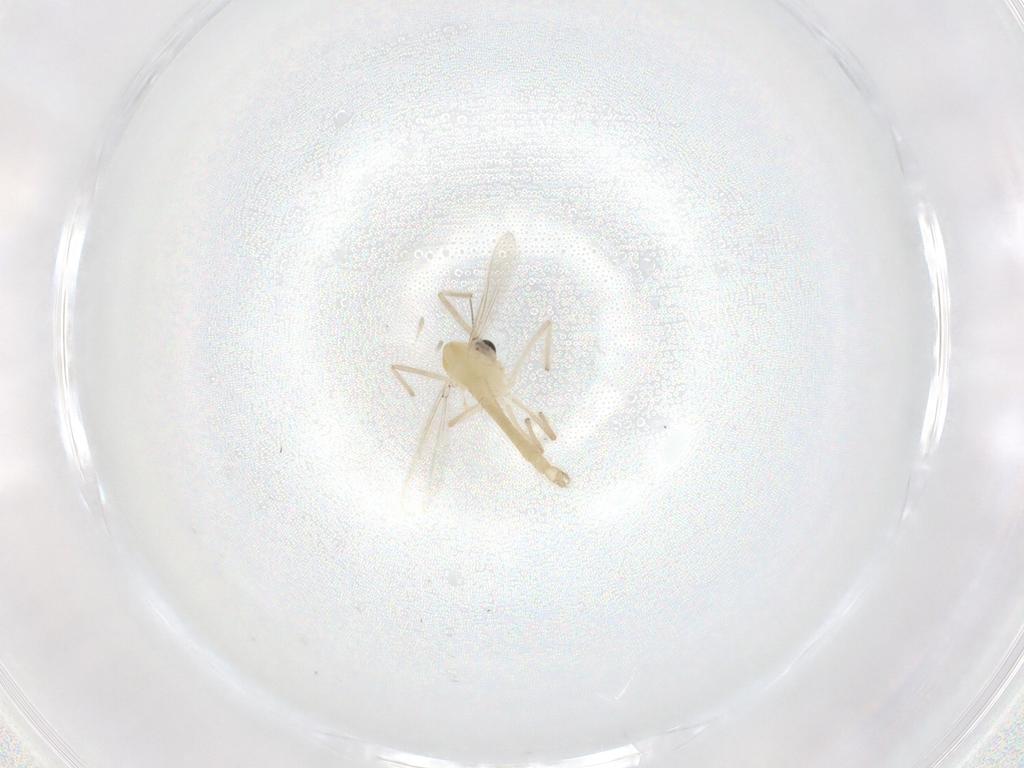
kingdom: Animalia
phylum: Arthropoda
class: Insecta
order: Diptera
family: Chironomidae
